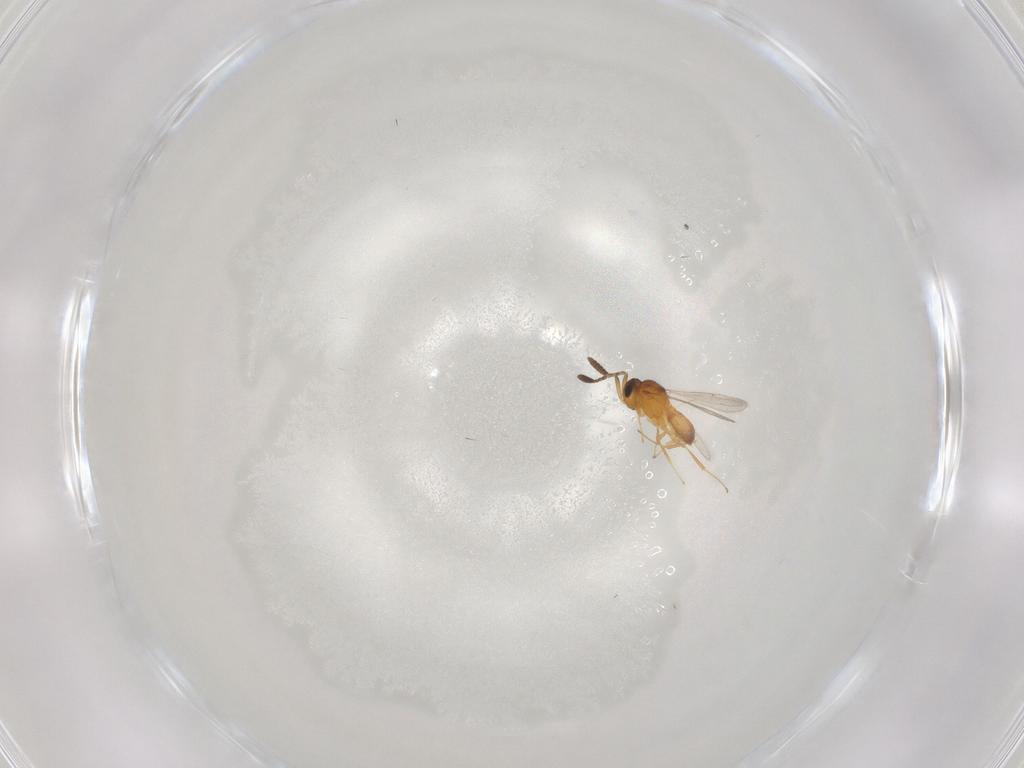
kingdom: Animalia
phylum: Arthropoda
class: Insecta
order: Hymenoptera
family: Scelionidae
